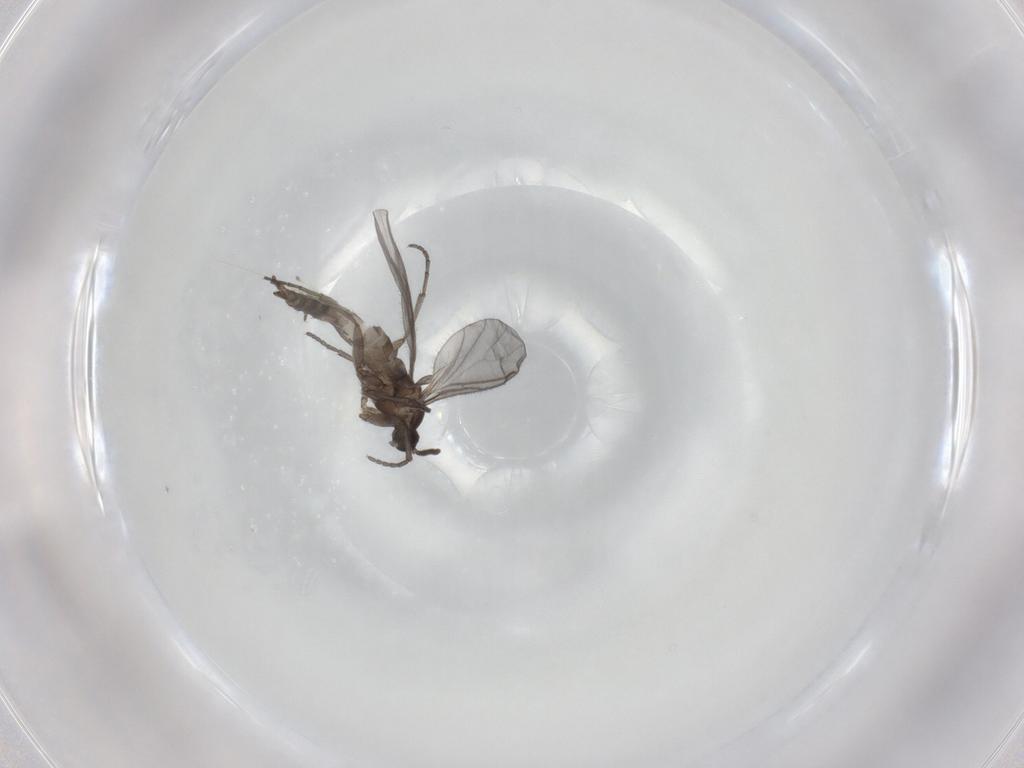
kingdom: Animalia
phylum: Arthropoda
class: Insecta
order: Diptera
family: Sciaridae
